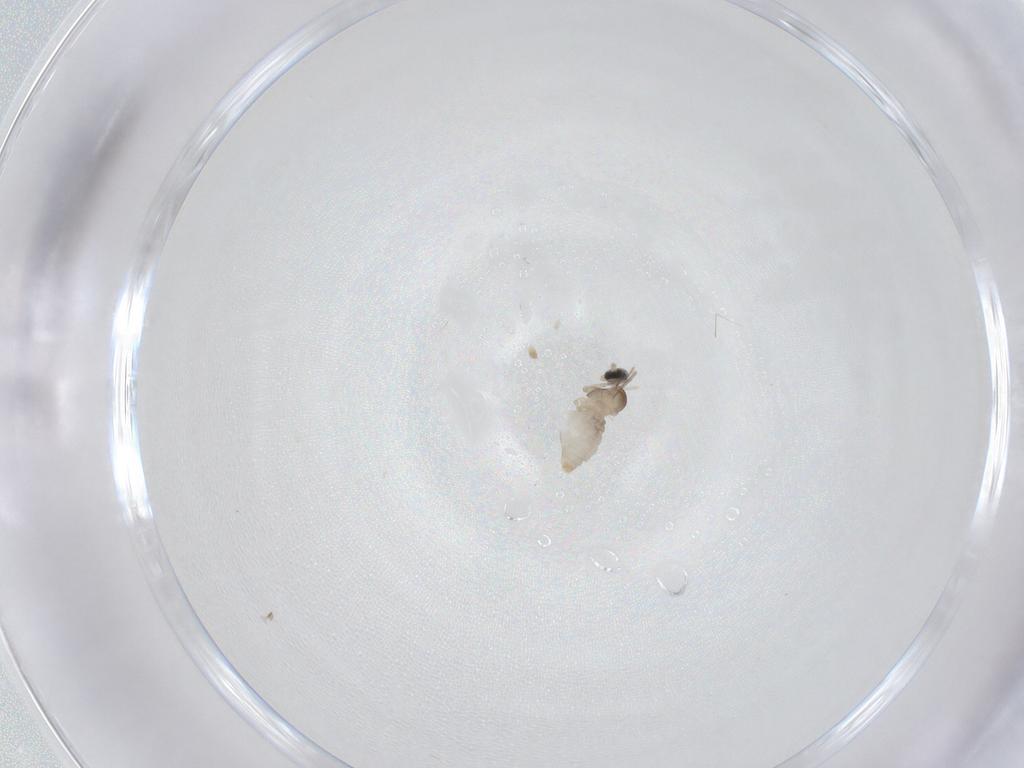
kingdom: Animalia
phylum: Arthropoda
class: Insecta
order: Diptera
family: Cecidomyiidae
